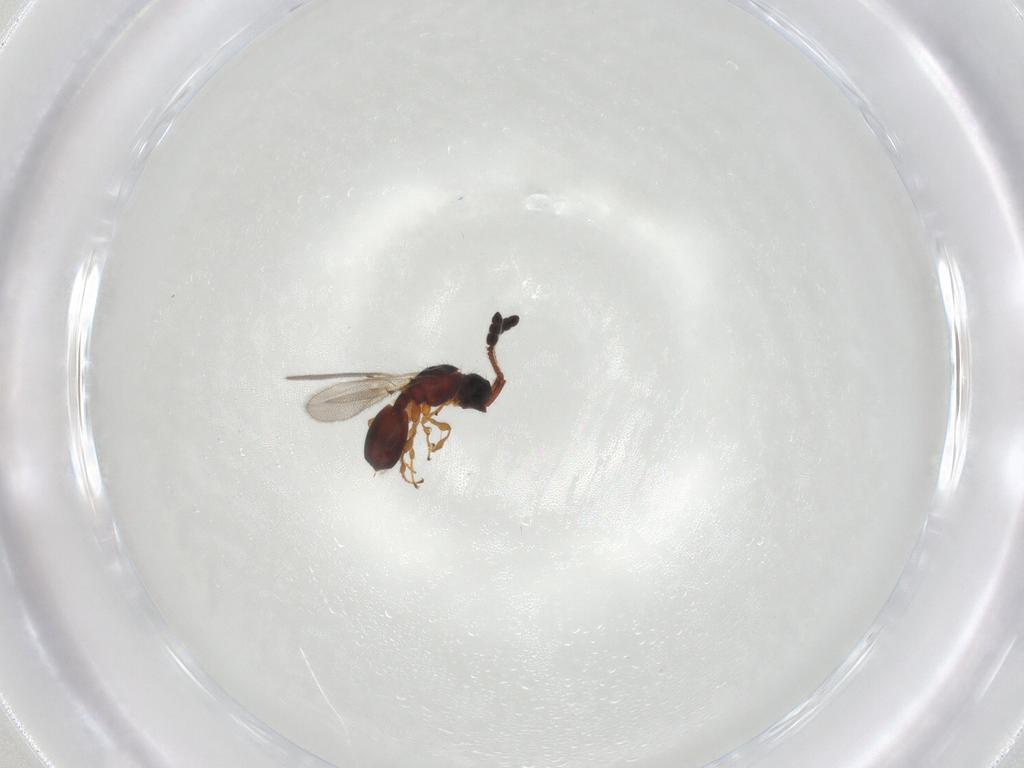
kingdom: Animalia
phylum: Arthropoda
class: Insecta
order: Hymenoptera
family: Diapriidae
